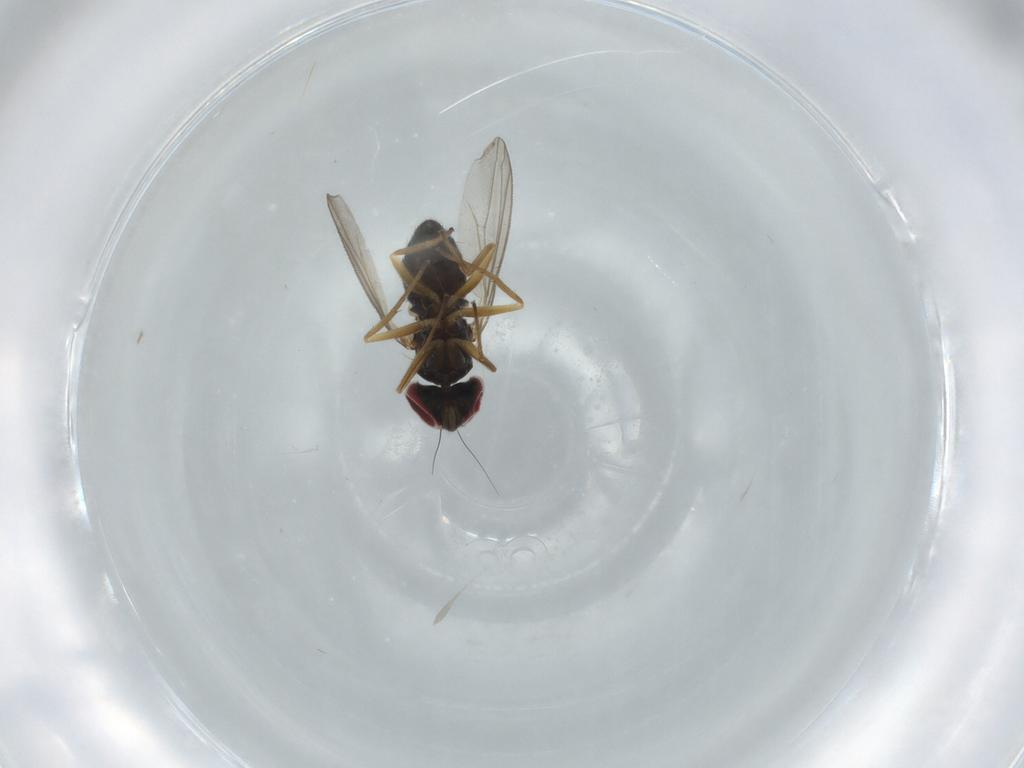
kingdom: Animalia
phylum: Arthropoda
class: Insecta
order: Diptera
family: Dolichopodidae
